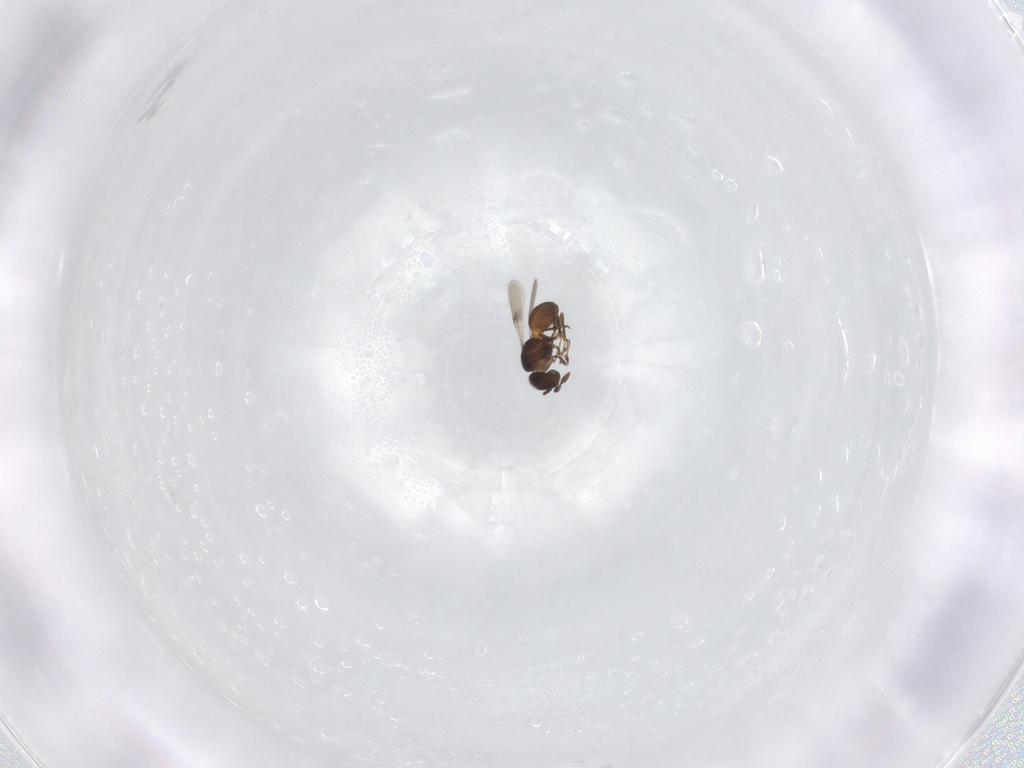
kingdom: Animalia
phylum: Arthropoda
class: Insecta
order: Hymenoptera
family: Scelionidae
